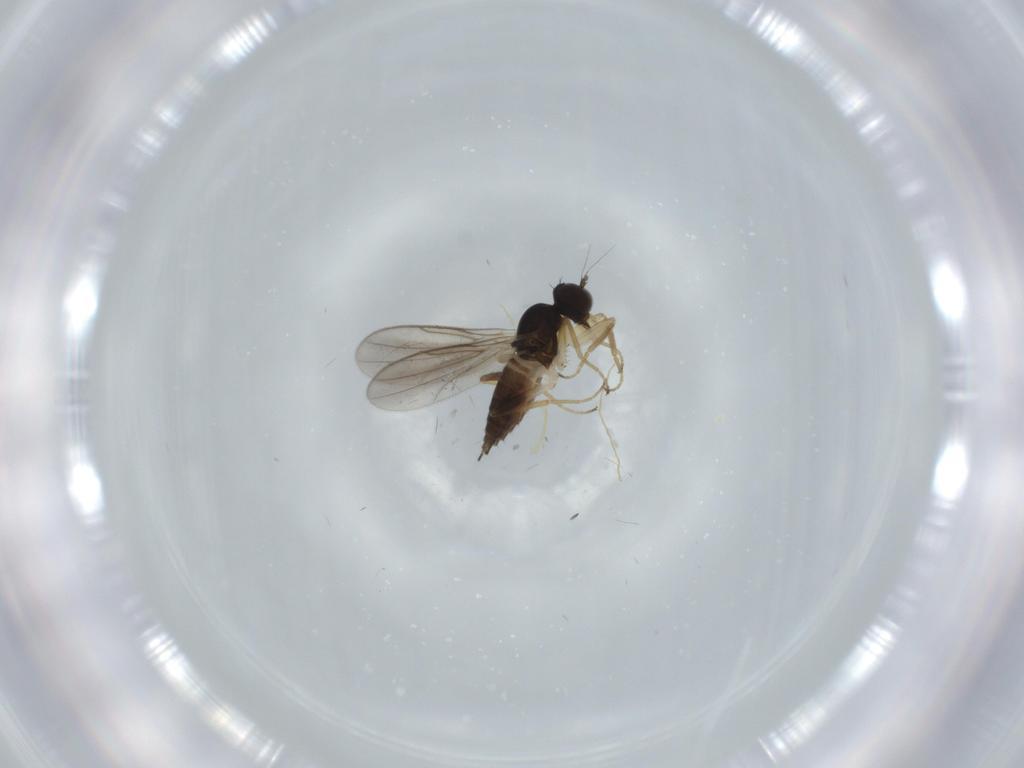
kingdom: Animalia
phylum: Arthropoda
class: Insecta
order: Diptera
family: Hybotidae
